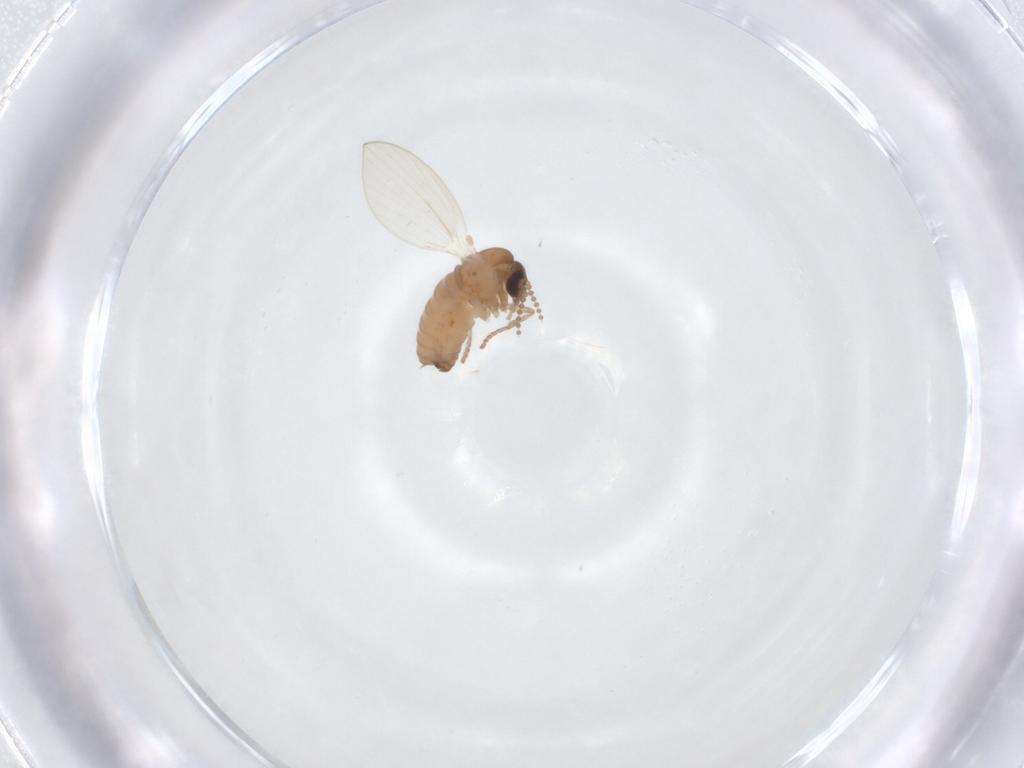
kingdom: Animalia
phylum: Arthropoda
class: Insecta
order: Diptera
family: Psychodidae
